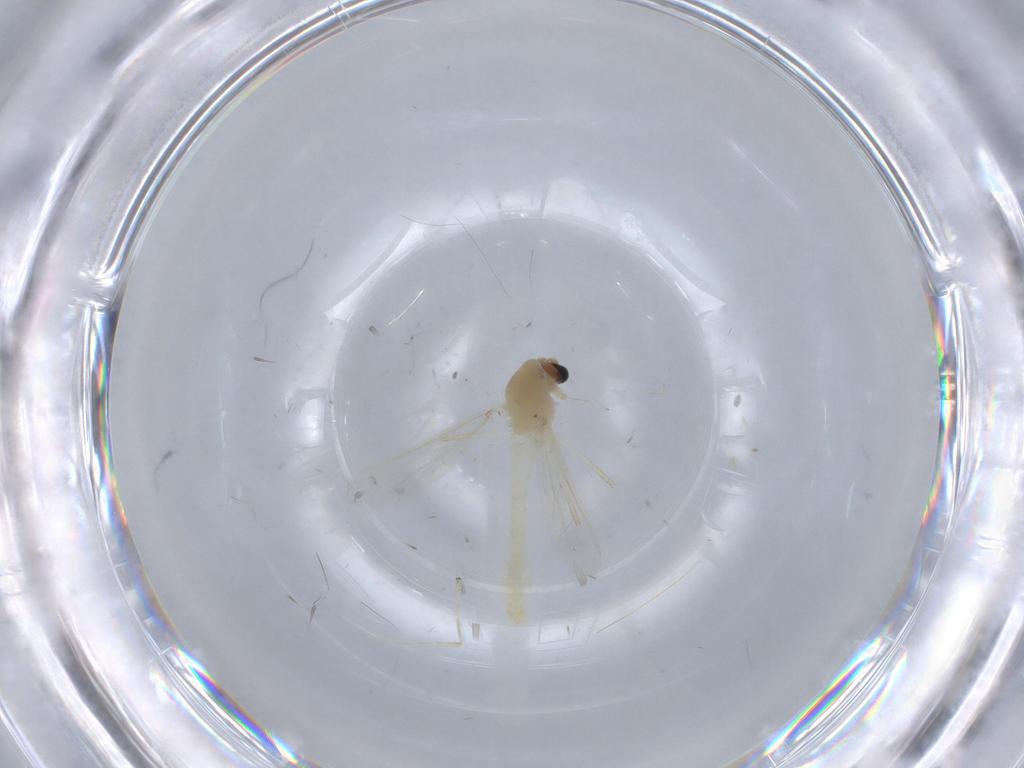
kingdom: Animalia
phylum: Arthropoda
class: Insecta
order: Diptera
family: Chironomidae
